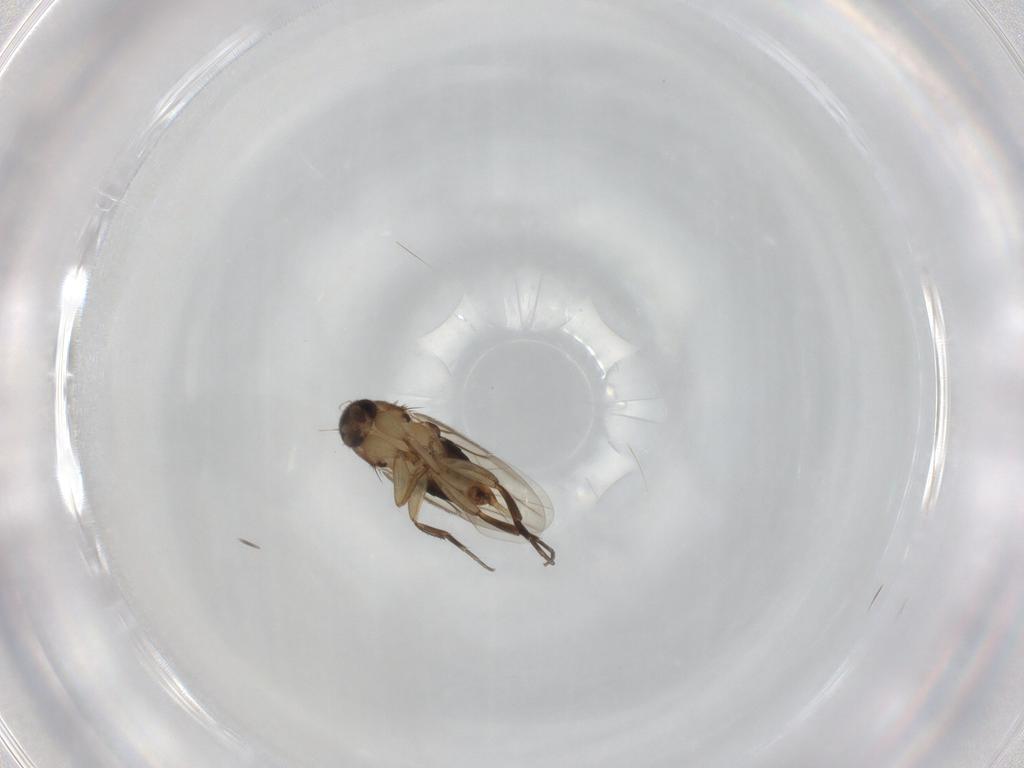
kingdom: Animalia
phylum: Arthropoda
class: Insecta
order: Diptera
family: Phoridae
